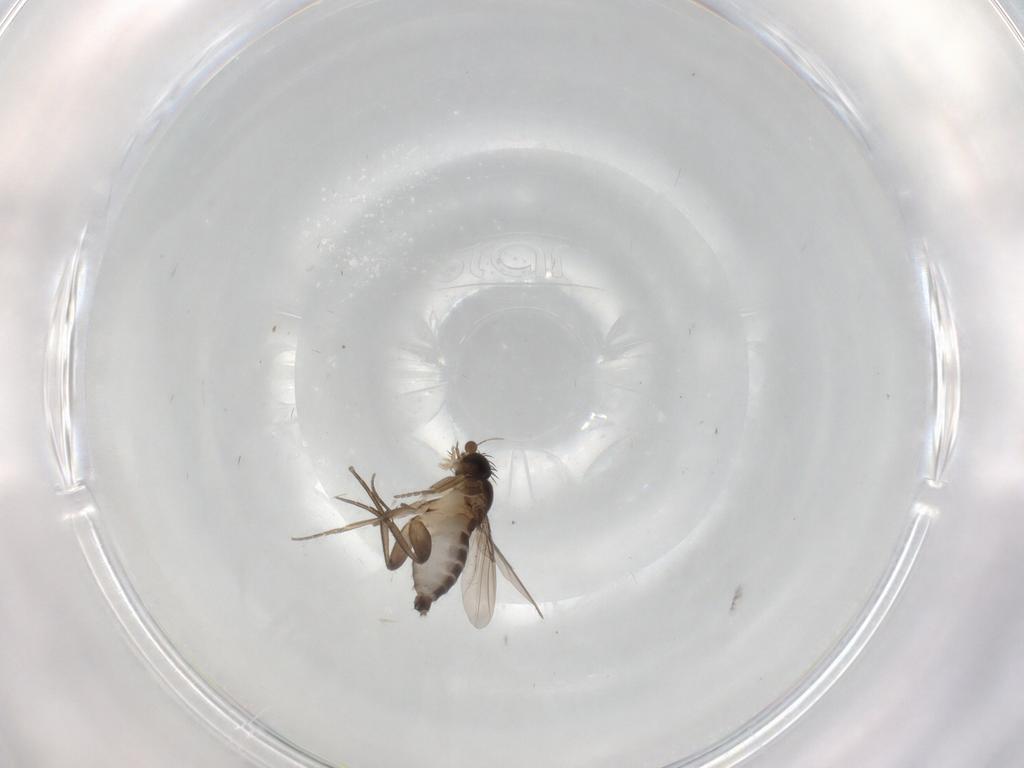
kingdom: Animalia
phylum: Arthropoda
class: Insecta
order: Diptera
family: Phoridae
